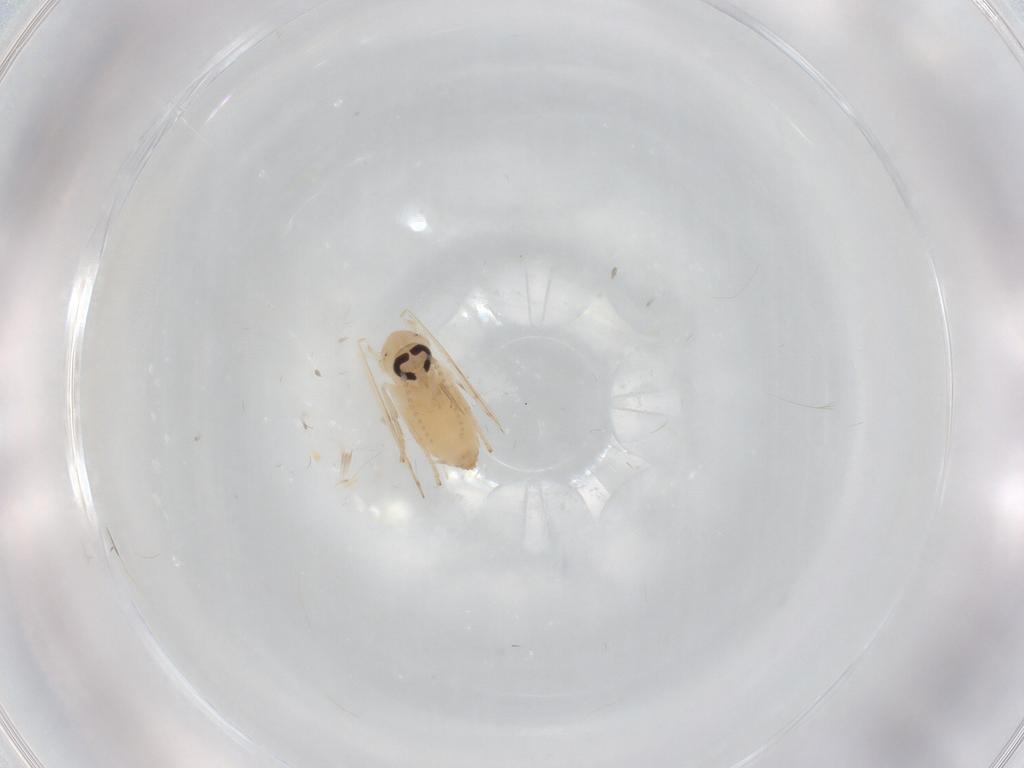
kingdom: Animalia
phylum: Arthropoda
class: Insecta
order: Diptera
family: Psychodidae
